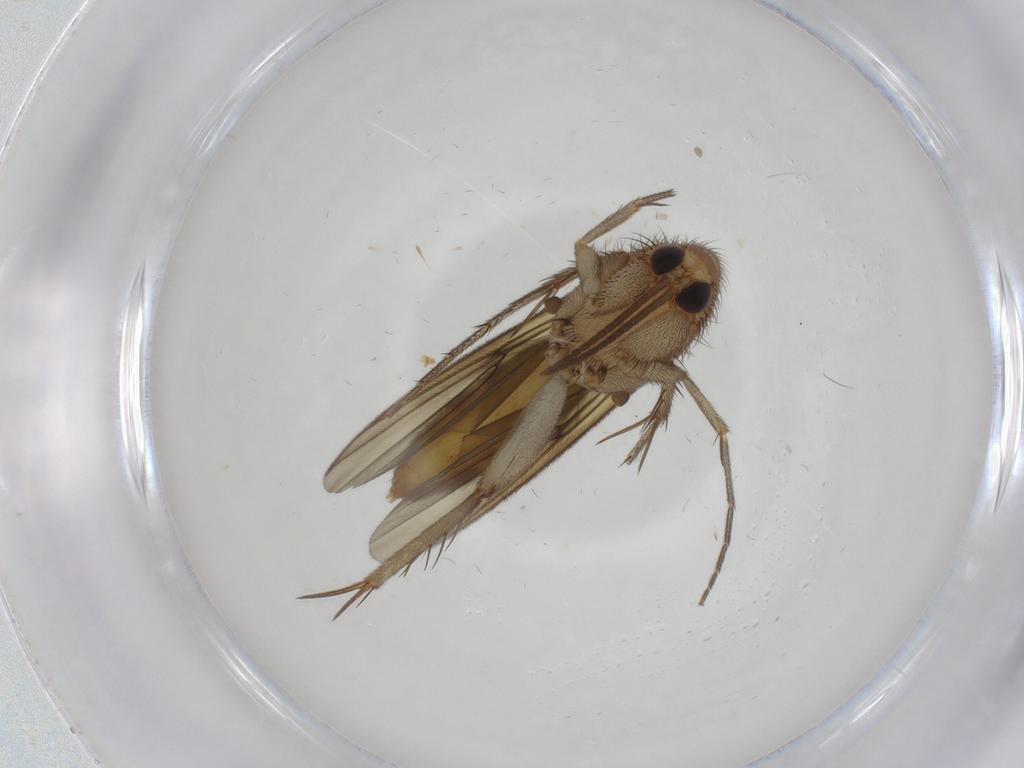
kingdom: Animalia
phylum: Arthropoda
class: Insecta
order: Diptera
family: Mycetophilidae
